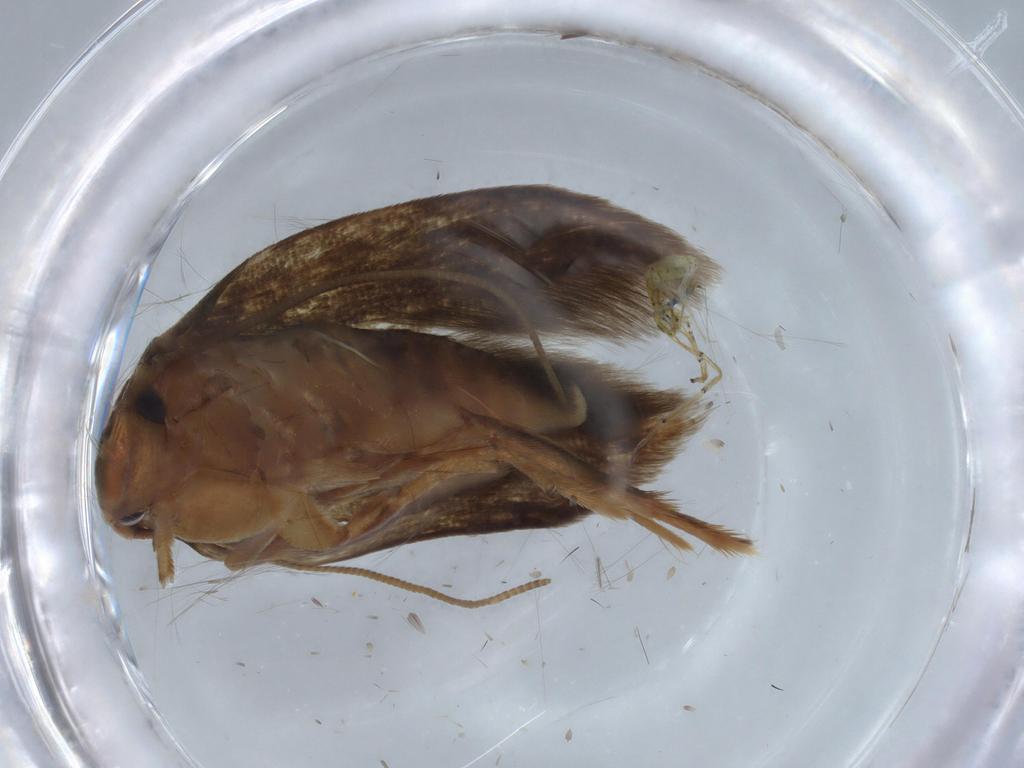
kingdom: Animalia
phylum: Arthropoda
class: Insecta
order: Lepidoptera
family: Tineidae
